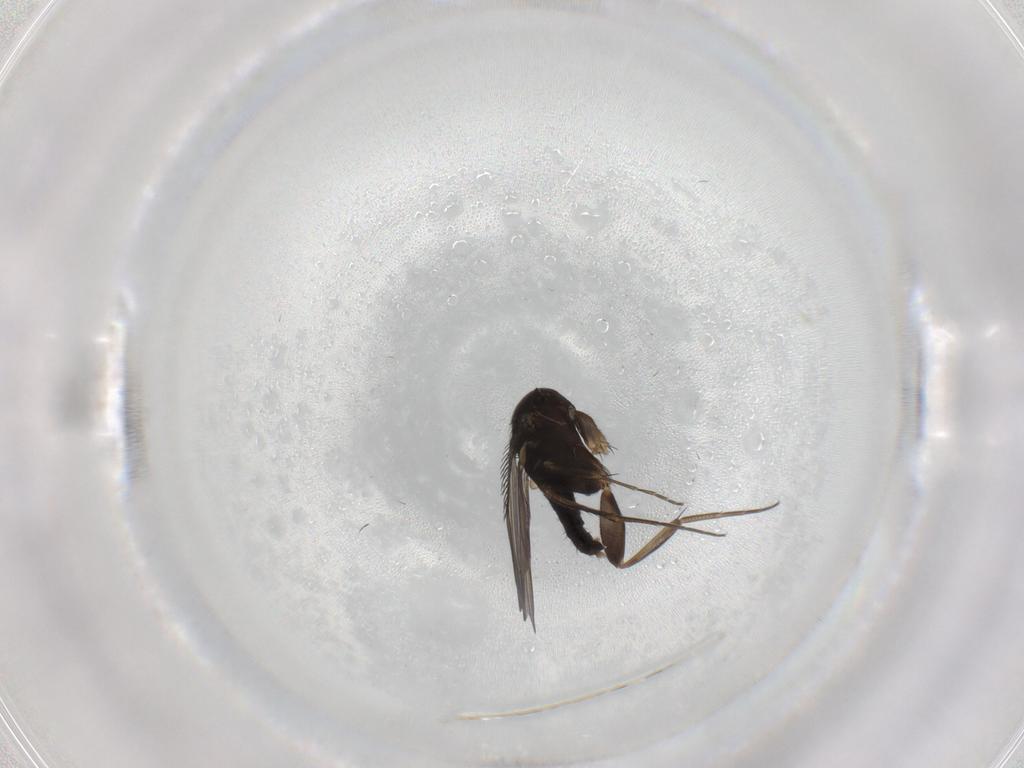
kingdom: Animalia
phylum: Arthropoda
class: Insecta
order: Diptera
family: Phoridae
